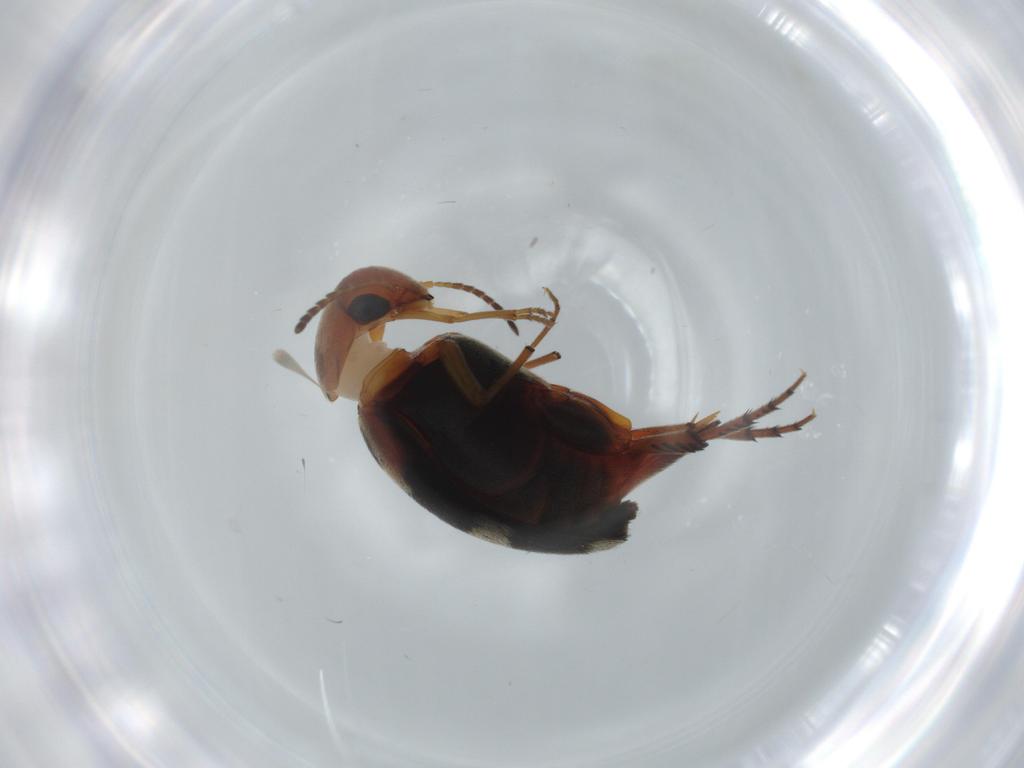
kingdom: Animalia
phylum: Arthropoda
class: Insecta
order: Coleoptera
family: Mordellidae
